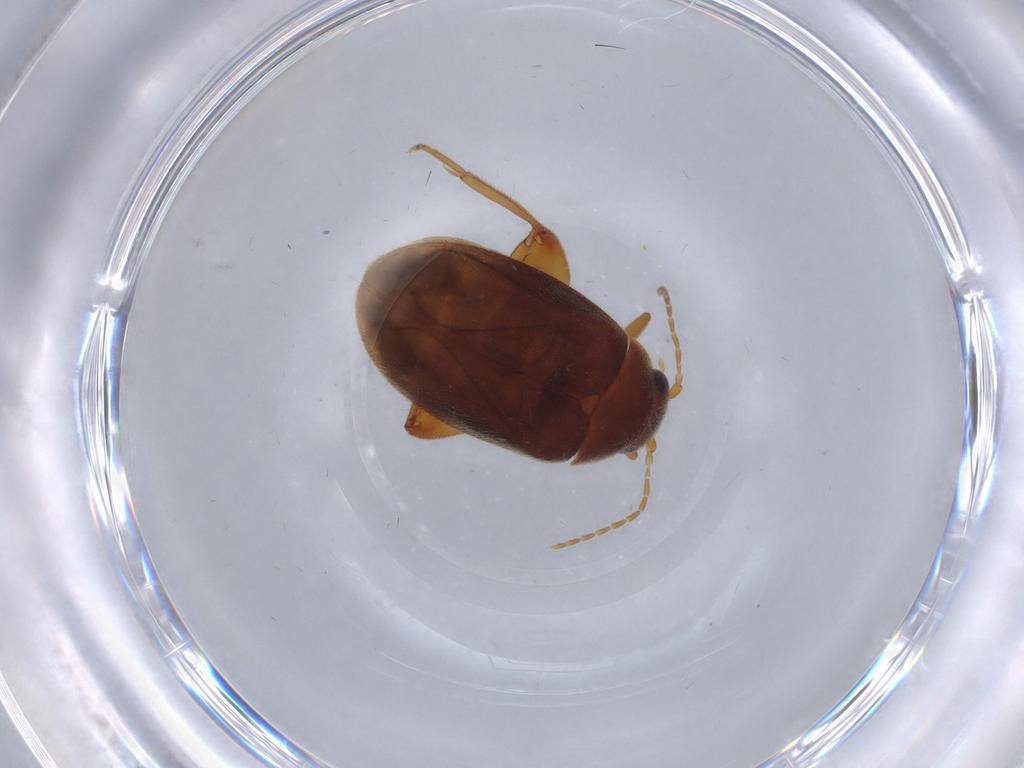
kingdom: Animalia
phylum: Arthropoda
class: Insecta
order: Coleoptera
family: Scirtidae
